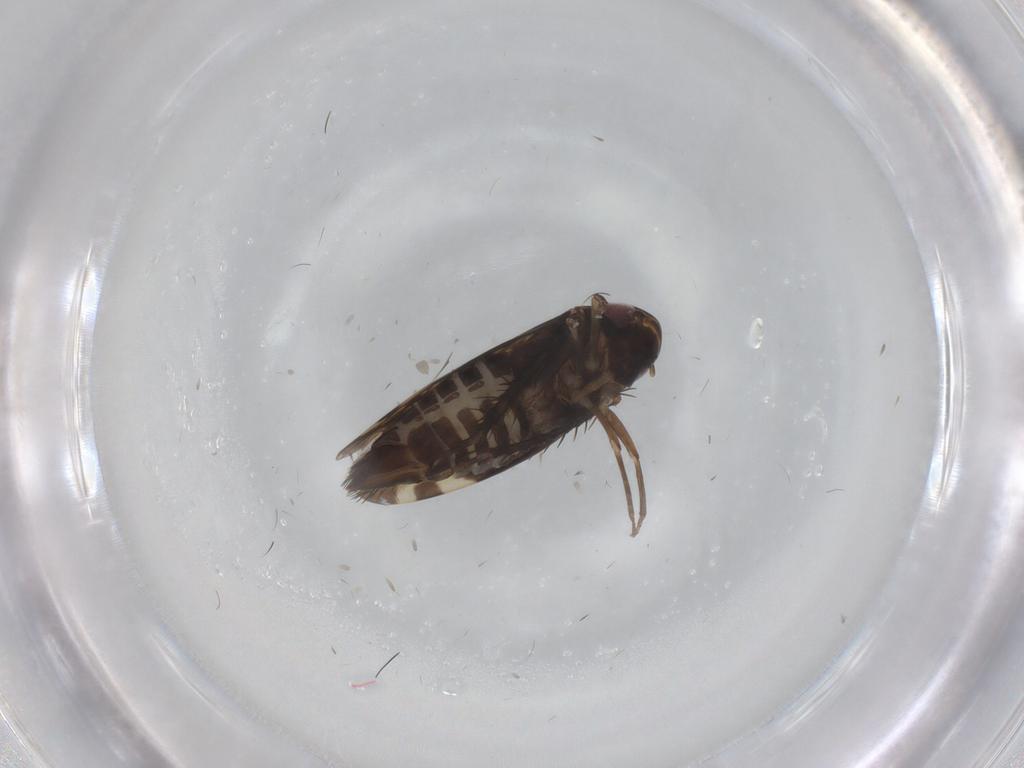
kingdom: Animalia
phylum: Arthropoda
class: Insecta
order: Hemiptera
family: Cicadellidae
